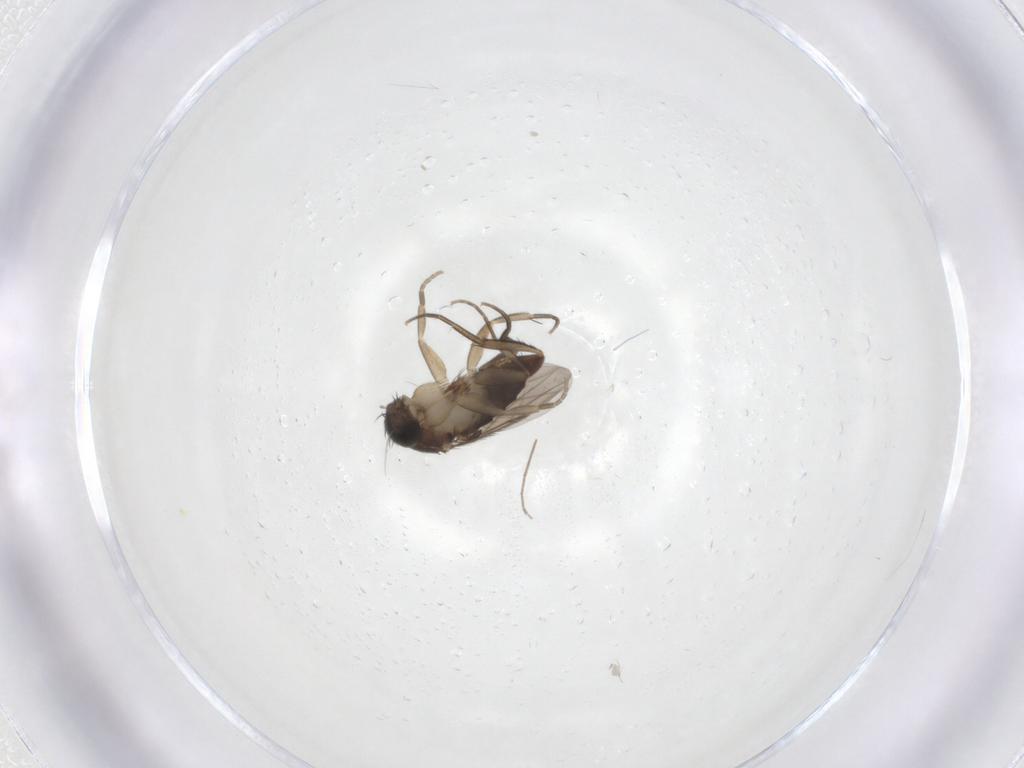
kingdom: Animalia
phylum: Arthropoda
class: Insecta
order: Diptera
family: Phoridae
